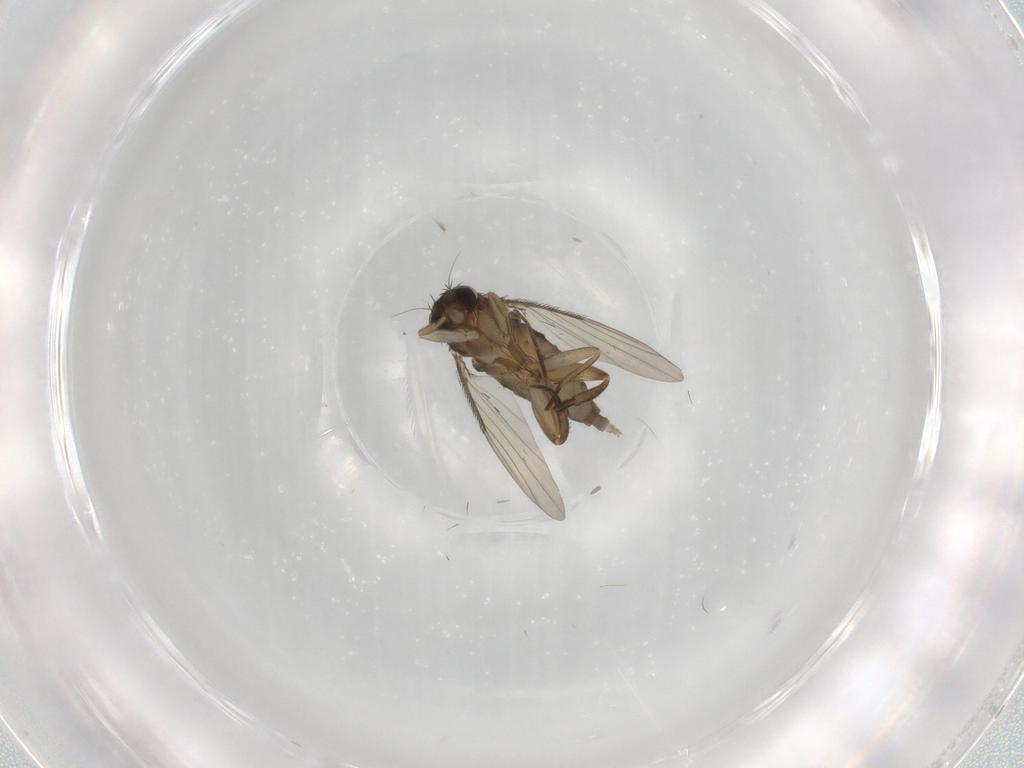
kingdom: Animalia
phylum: Arthropoda
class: Insecta
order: Diptera
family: Phoridae
